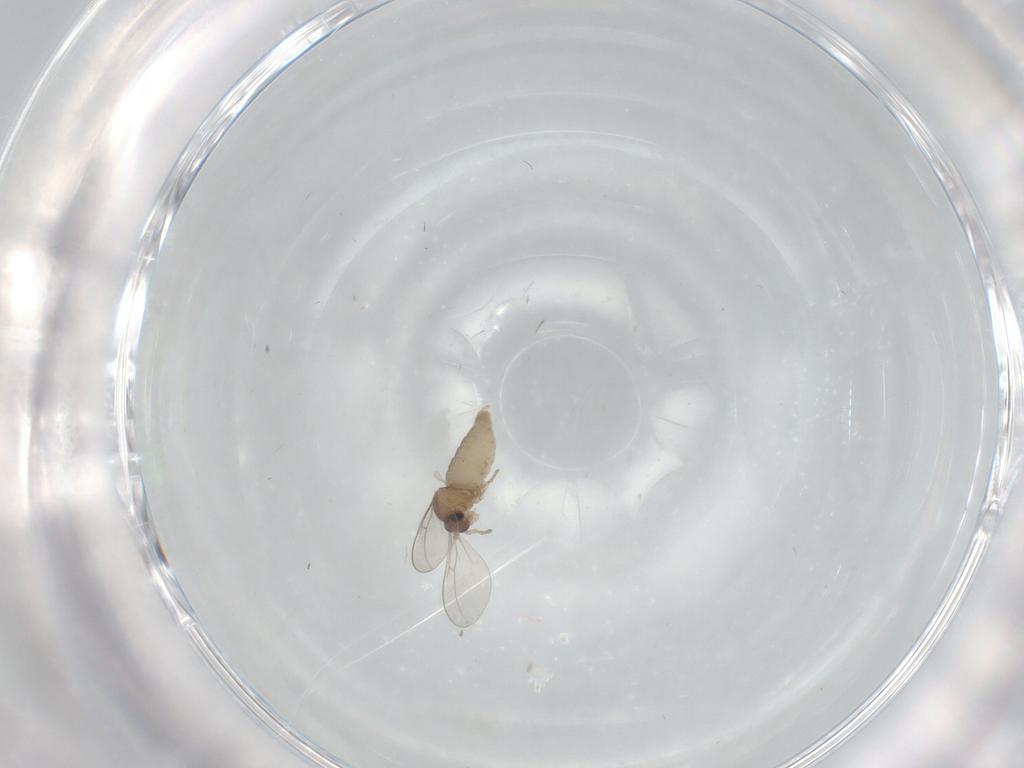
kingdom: Animalia
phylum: Arthropoda
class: Insecta
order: Diptera
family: Cecidomyiidae
